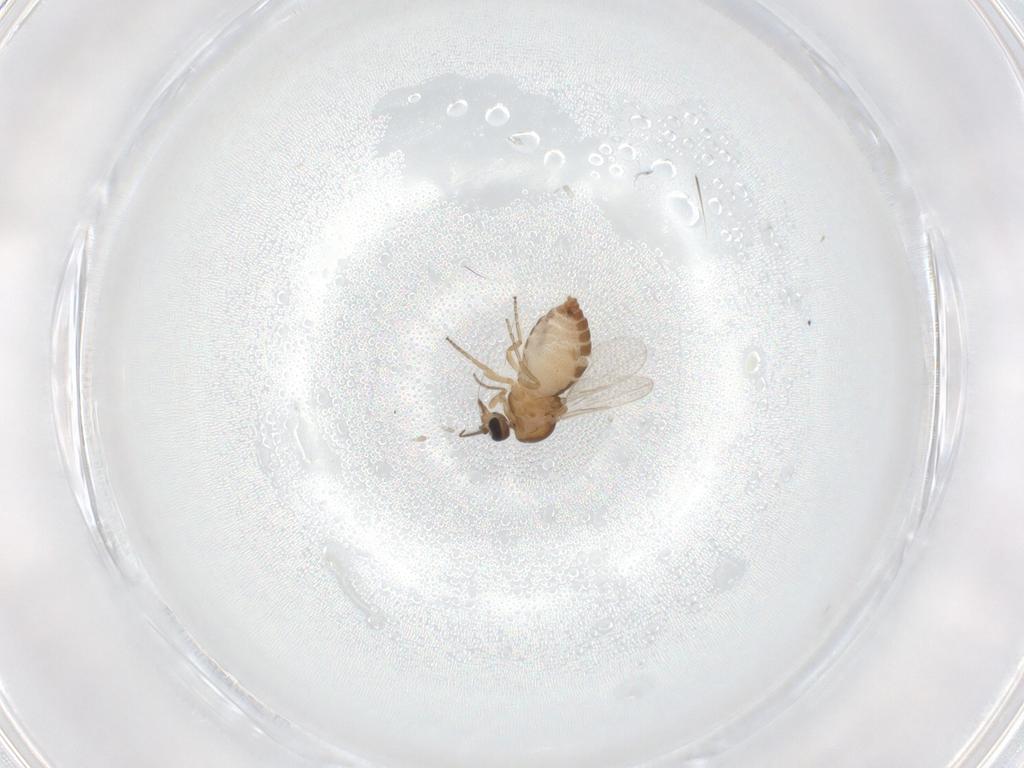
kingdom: Animalia
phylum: Arthropoda
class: Insecta
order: Diptera
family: Ceratopogonidae
